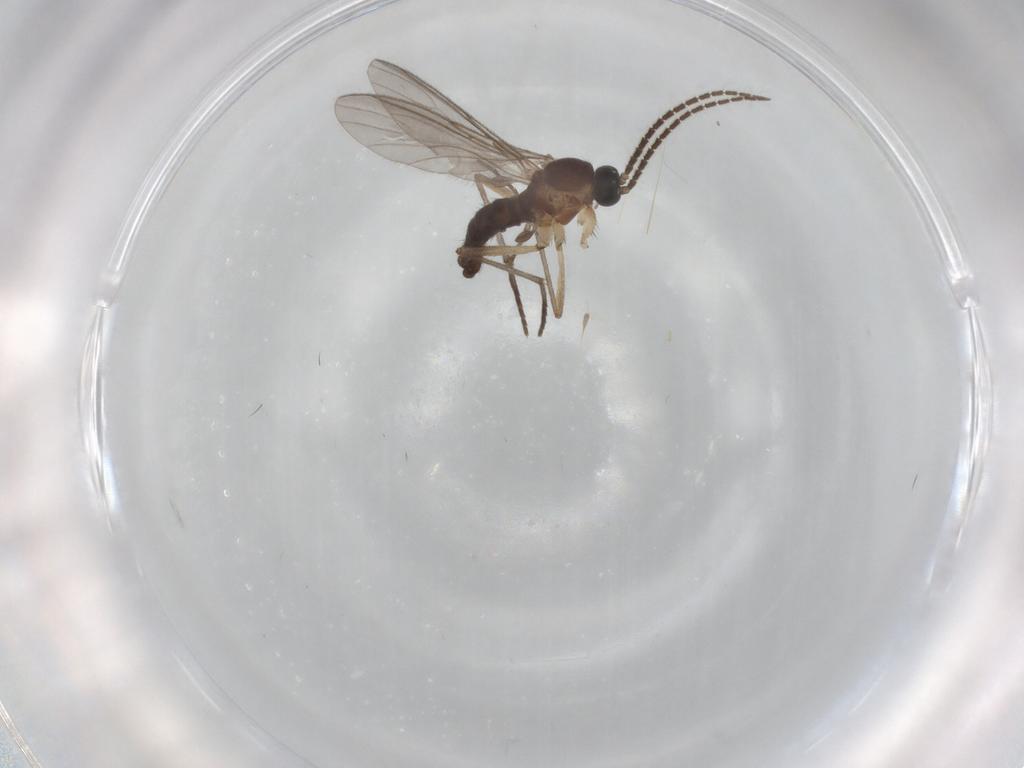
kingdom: Animalia
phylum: Arthropoda
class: Insecta
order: Diptera
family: Sciaridae
